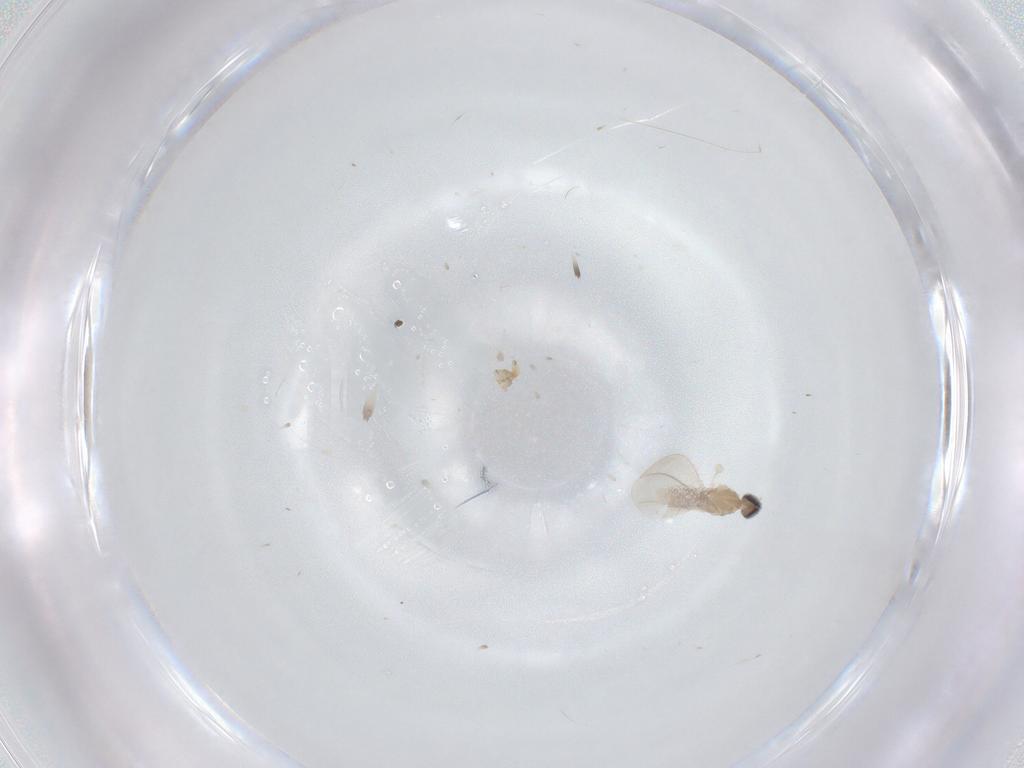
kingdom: Animalia
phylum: Arthropoda
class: Insecta
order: Diptera
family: Cecidomyiidae
